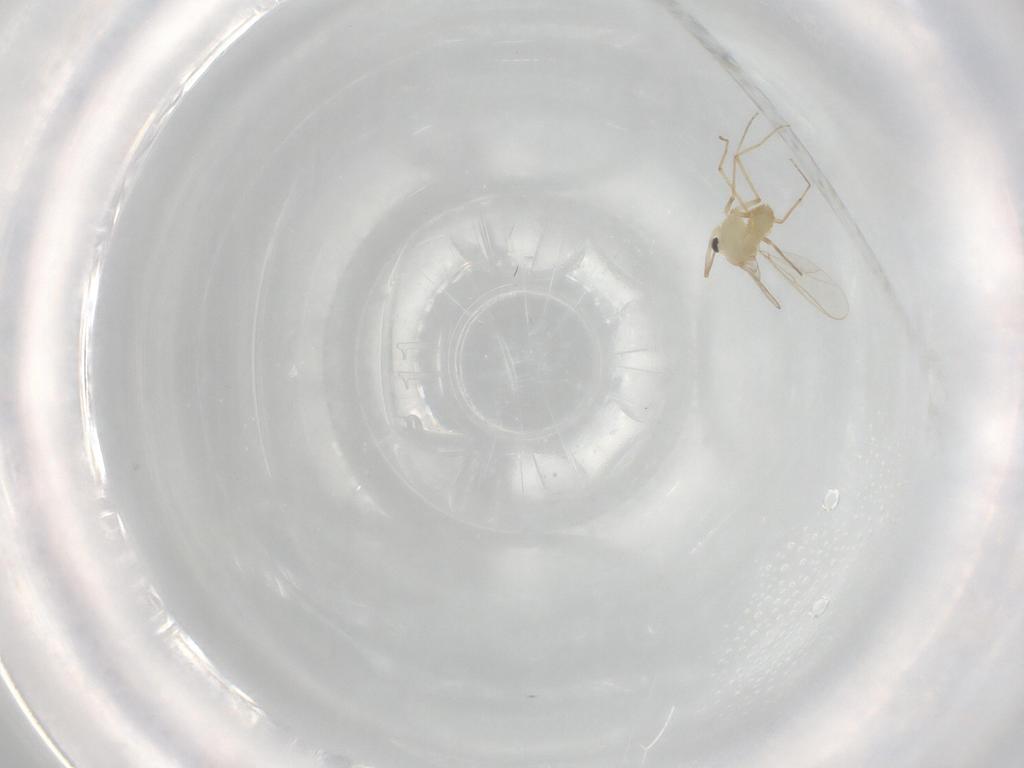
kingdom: Animalia
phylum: Arthropoda
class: Insecta
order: Diptera
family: Chironomidae
